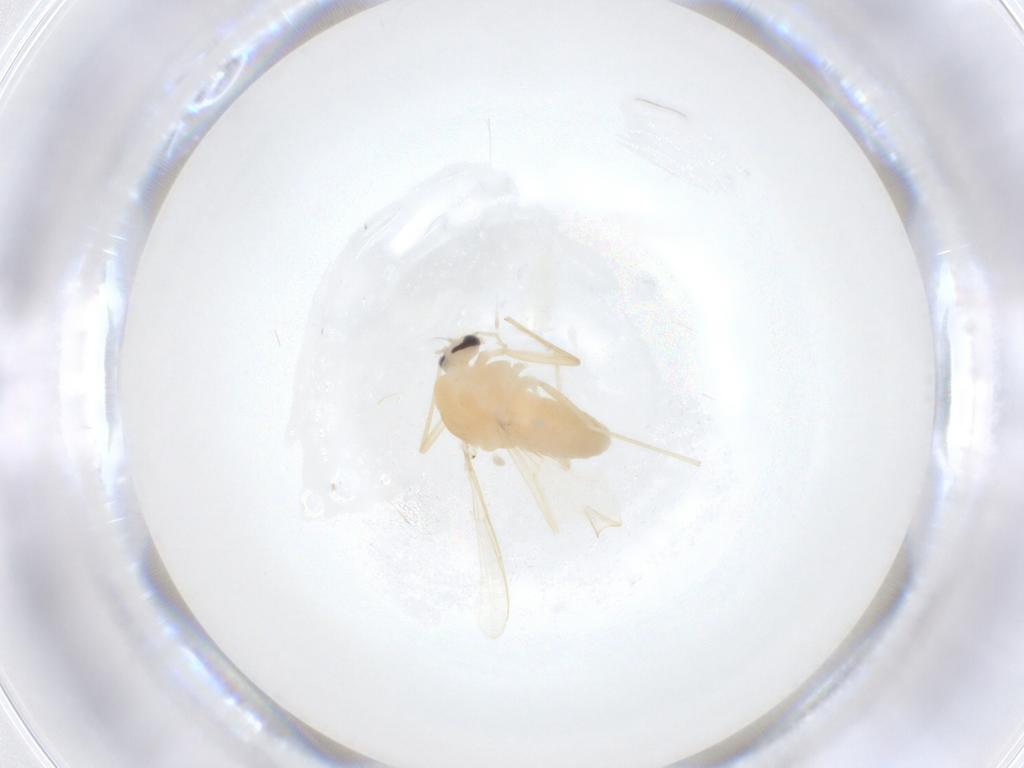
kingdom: Animalia
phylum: Arthropoda
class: Insecta
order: Diptera
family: Chironomidae
